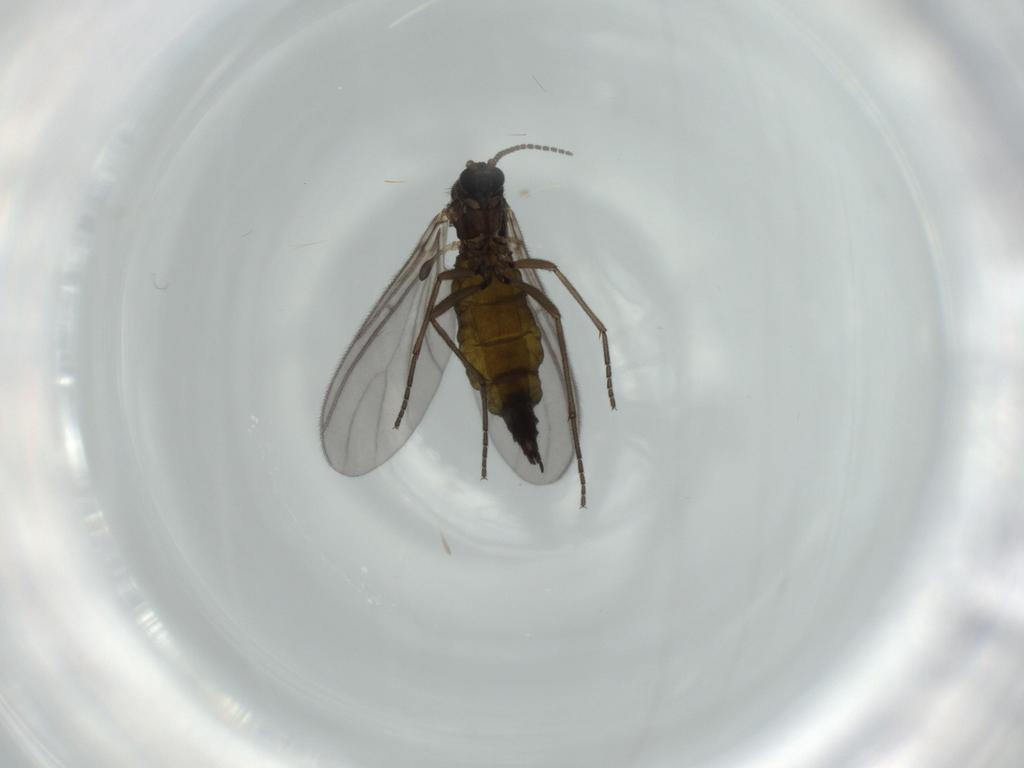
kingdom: Animalia
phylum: Arthropoda
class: Insecta
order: Diptera
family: Sciaridae
